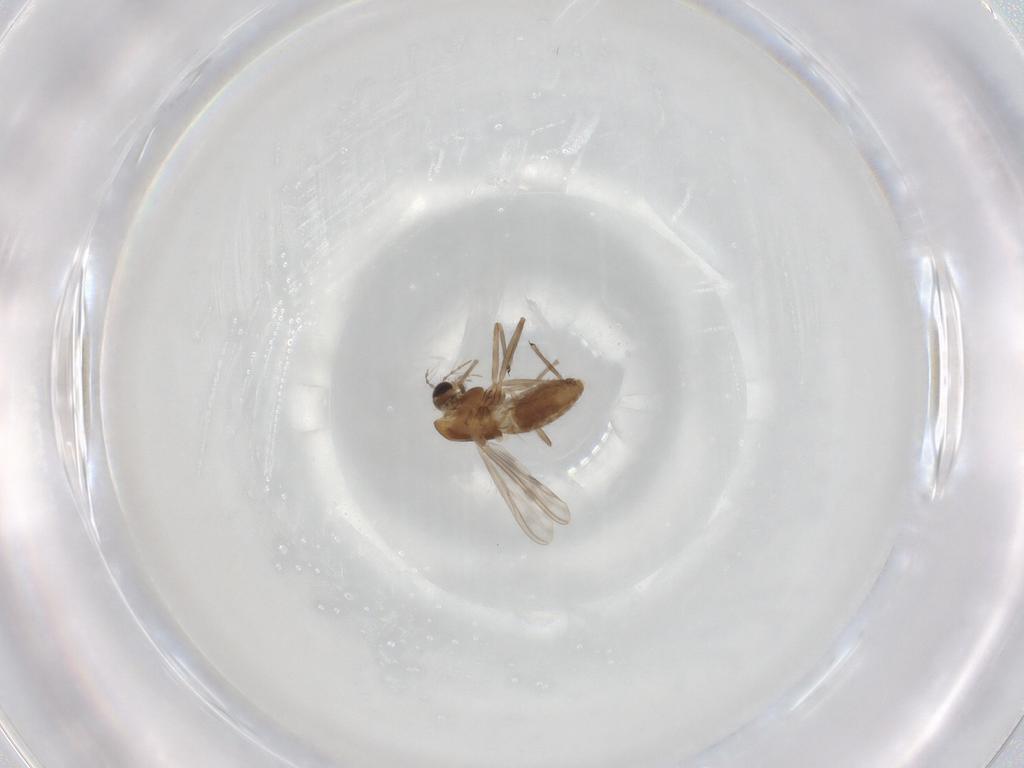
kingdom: Animalia
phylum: Arthropoda
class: Insecta
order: Diptera
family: Chironomidae
